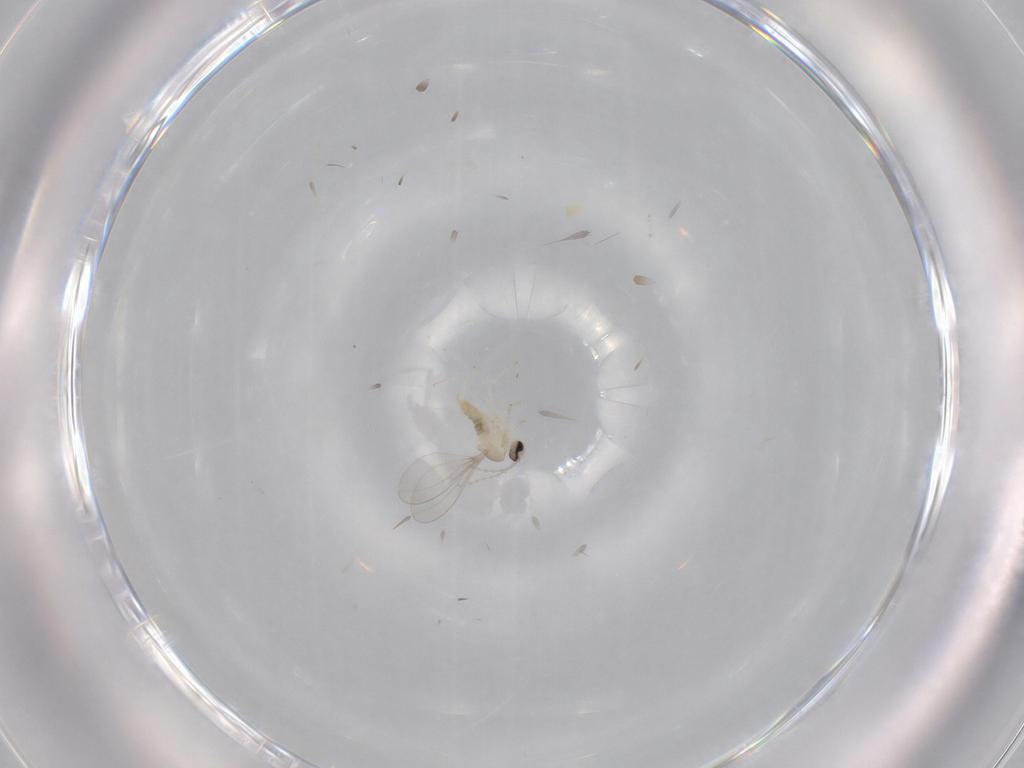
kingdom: Animalia
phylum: Arthropoda
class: Insecta
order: Diptera
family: Cecidomyiidae
